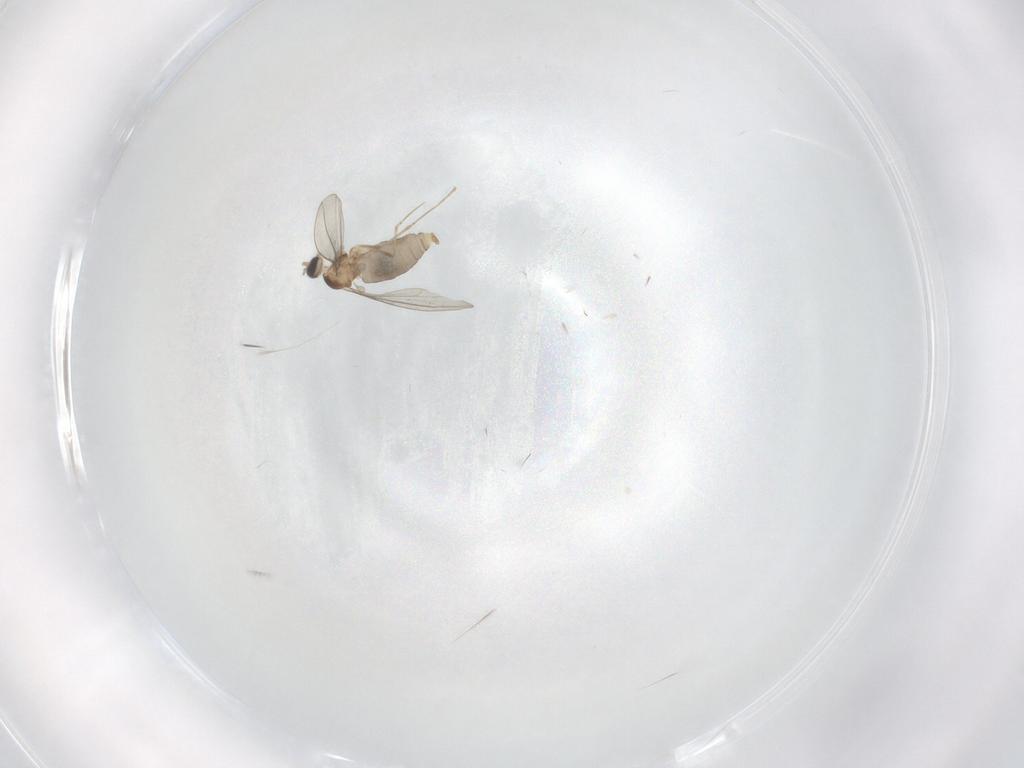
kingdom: Animalia
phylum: Arthropoda
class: Insecta
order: Diptera
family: Cecidomyiidae
